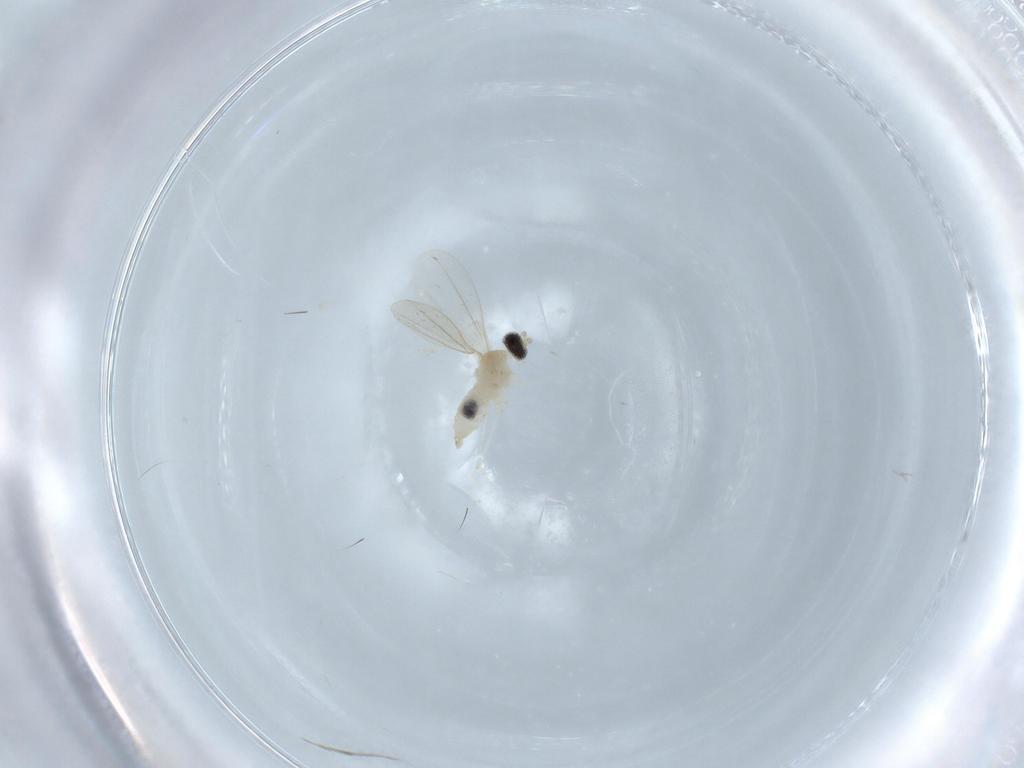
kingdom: Animalia
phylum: Arthropoda
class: Insecta
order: Diptera
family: Cecidomyiidae
